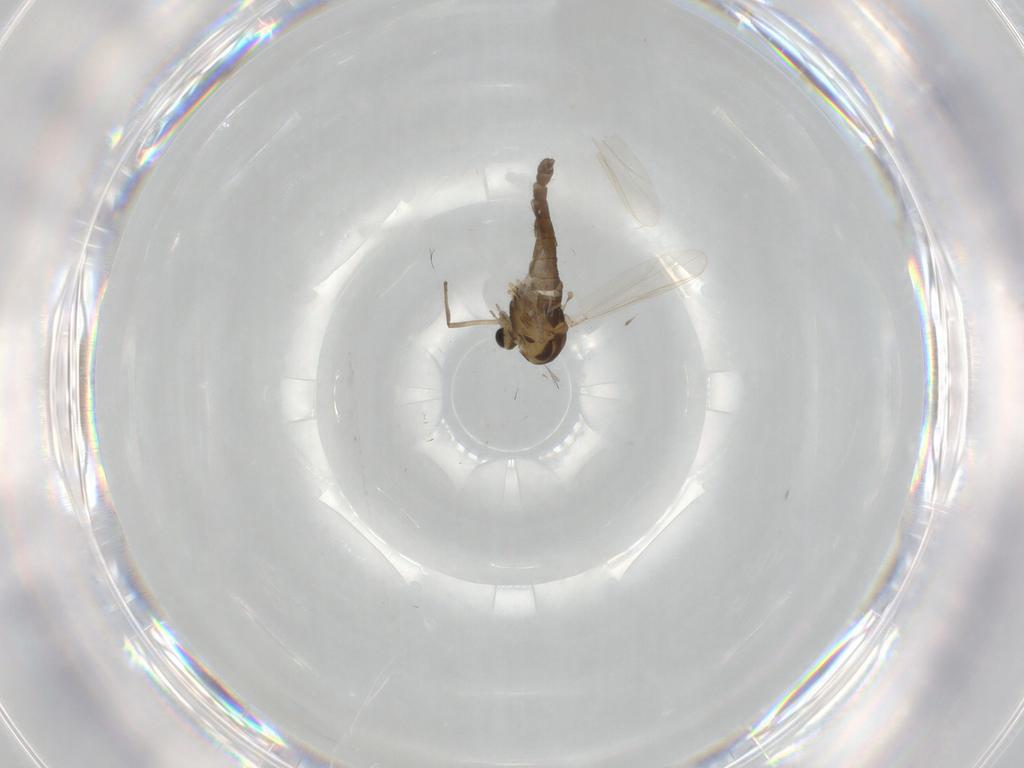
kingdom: Animalia
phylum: Arthropoda
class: Insecta
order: Diptera
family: Chironomidae
